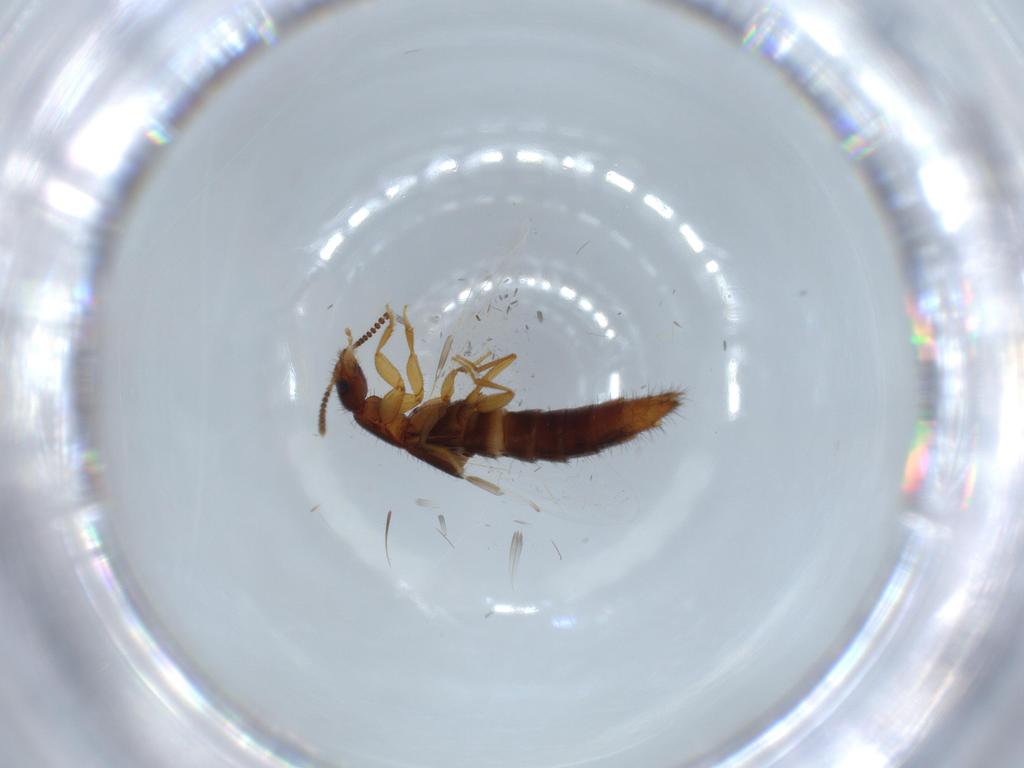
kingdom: Animalia
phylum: Arthropoda
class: Insecta
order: Coleoptera
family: Staphylinidae
